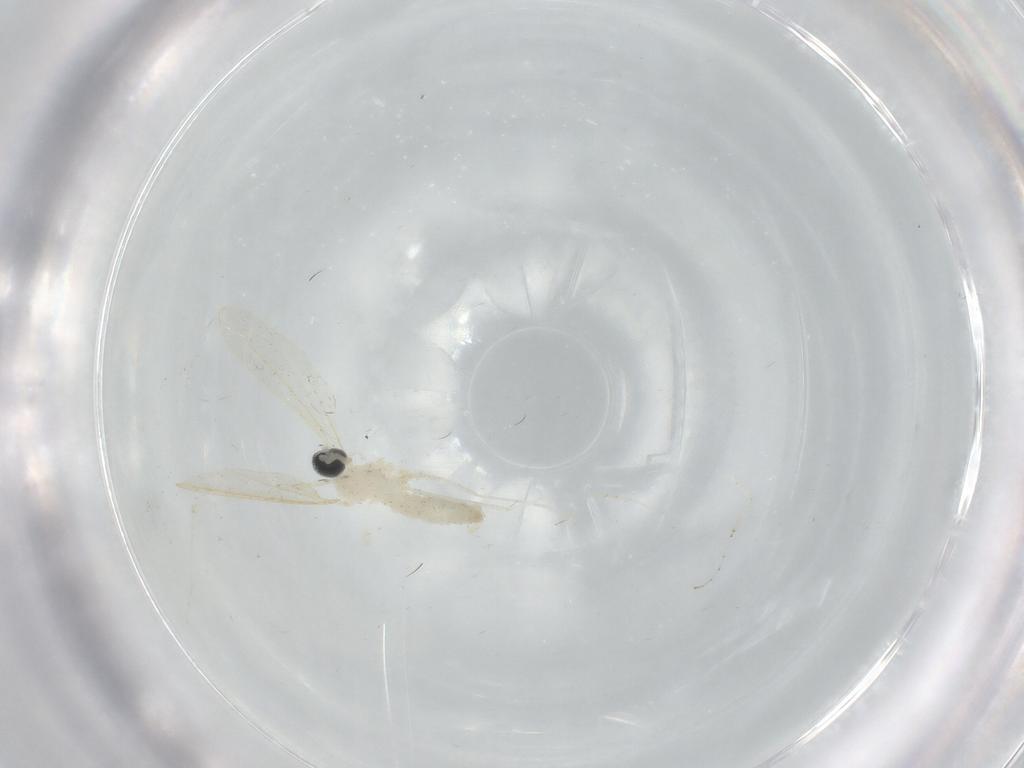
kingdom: Animalia
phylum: Arthropoda
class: Insecta
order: Diptera
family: Cecidomyiidae
